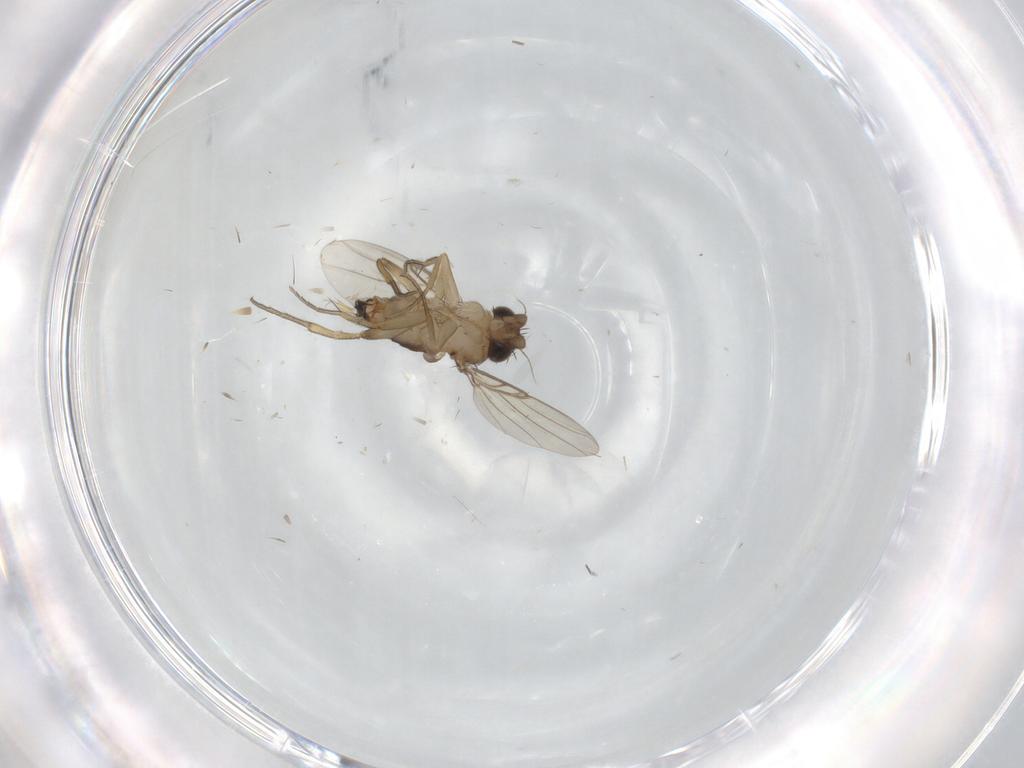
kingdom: Animalia
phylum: Arthropoda
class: Insecta
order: Diptera
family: Phoridae
